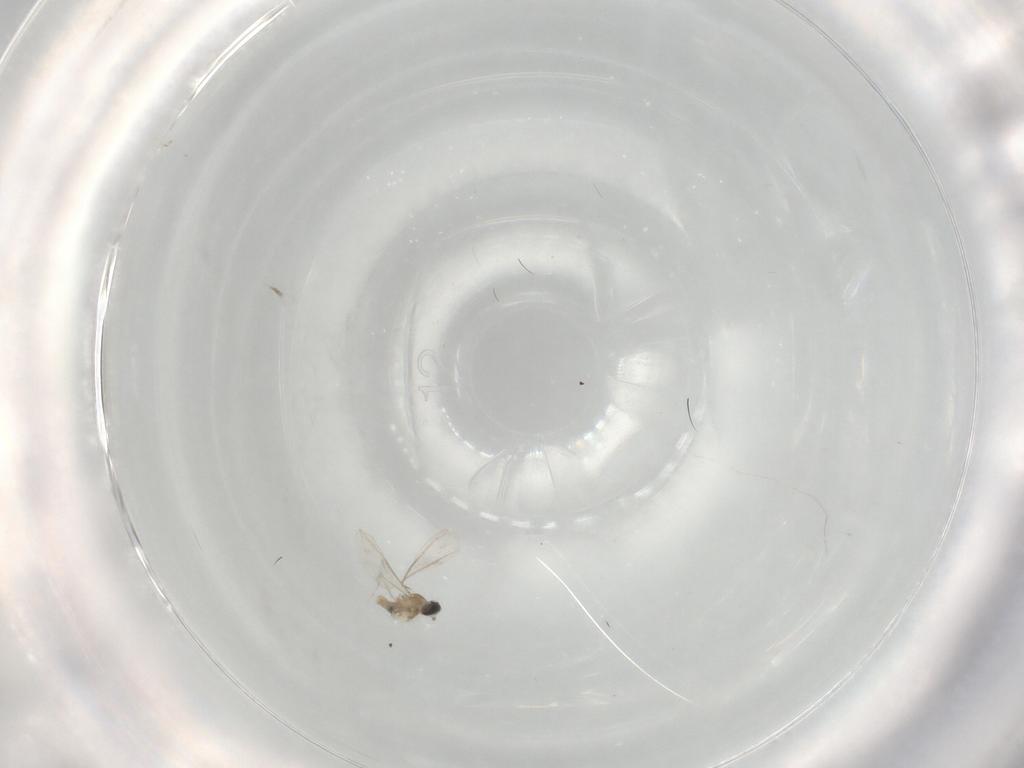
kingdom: Animalia
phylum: Arthropoda
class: Insecta
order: Diptera
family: Cecidomyiidae
